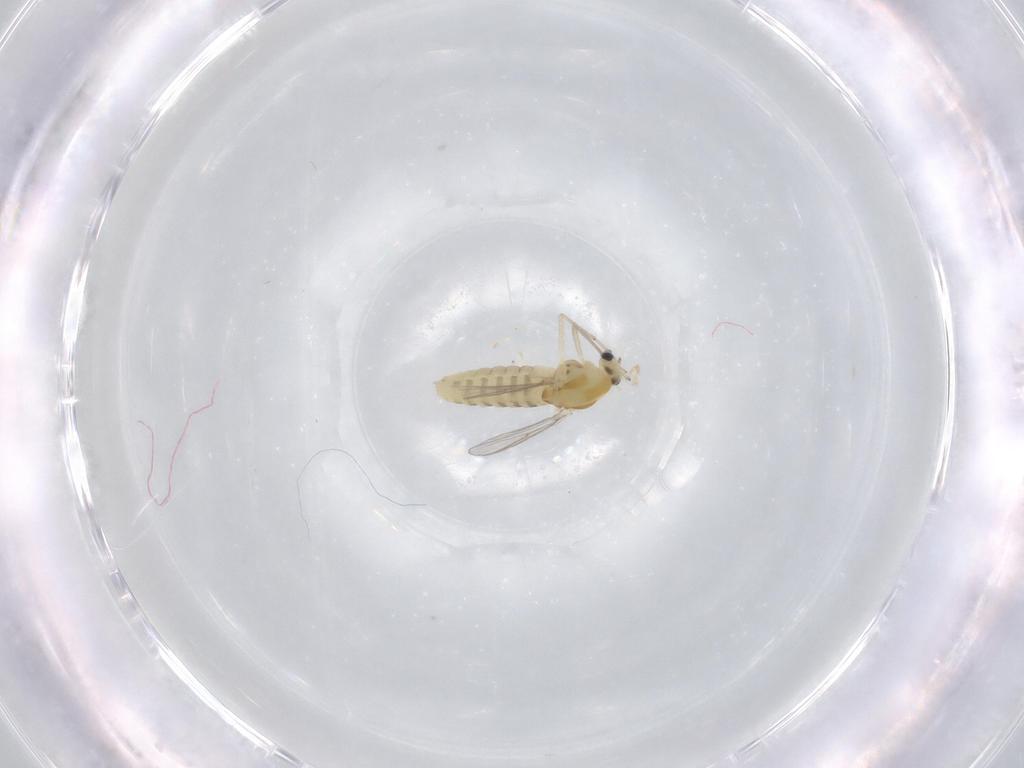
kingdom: Animalia
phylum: Arthropoda
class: Insecta
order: Diptera
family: Chironomidae
